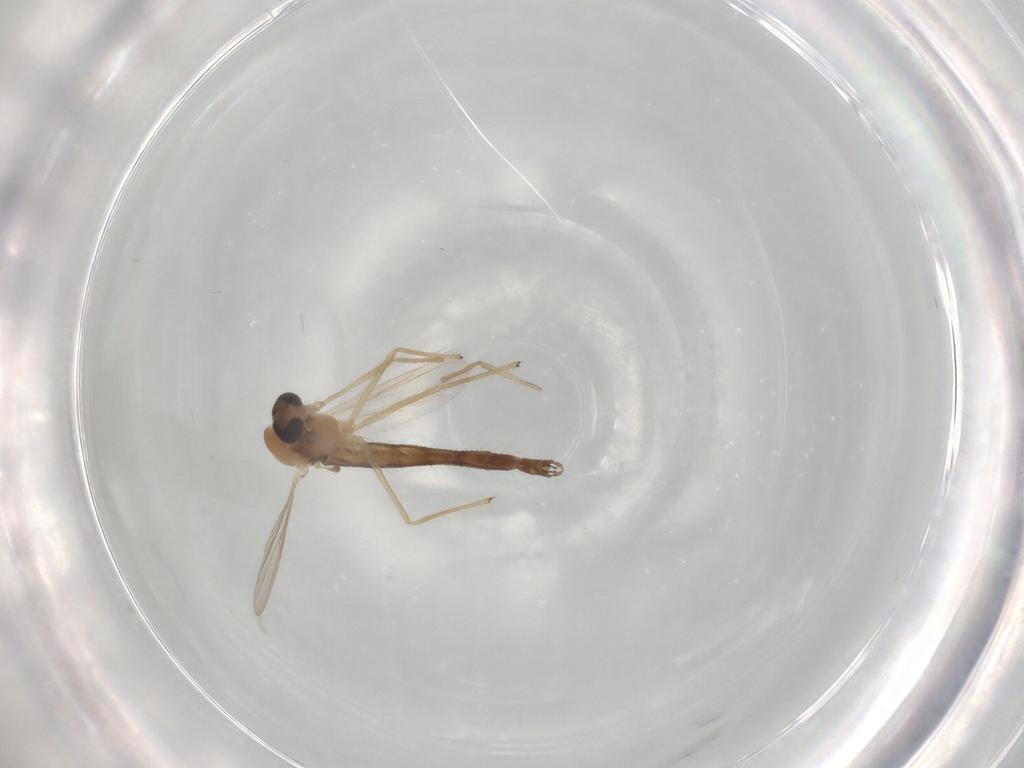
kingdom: Animalia
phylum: Arthropoda
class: Insecta
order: Diptera
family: Chironomidae
